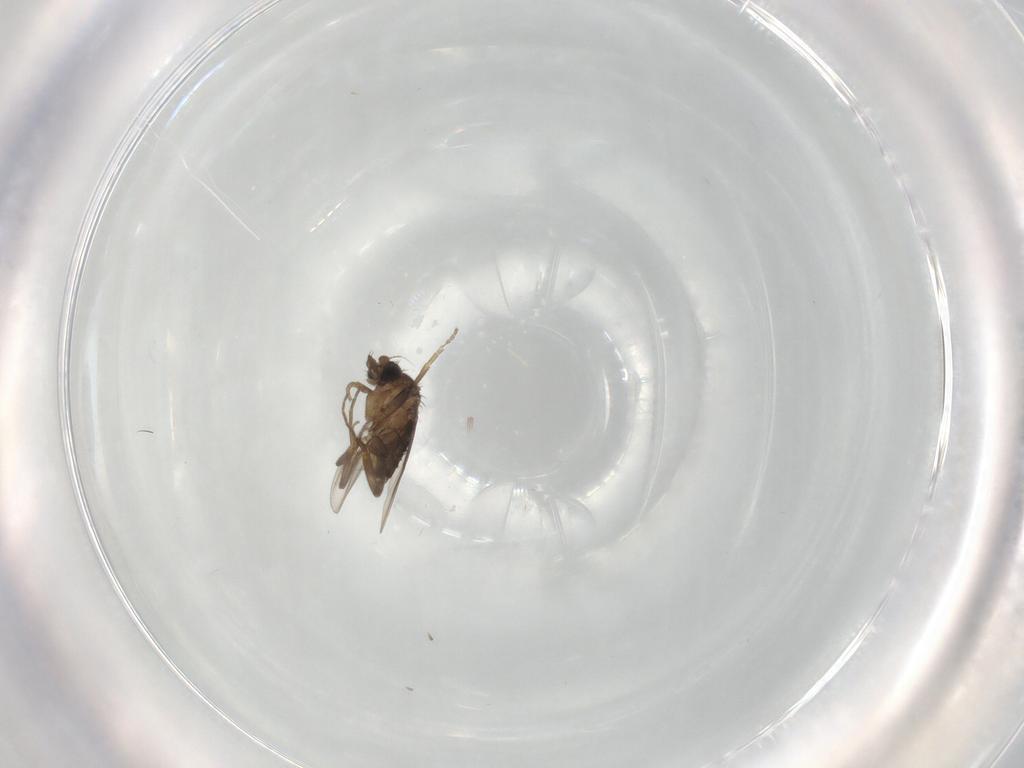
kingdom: Animalia
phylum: Arthropoda
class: Insecta
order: Diptera
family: Phoridae
